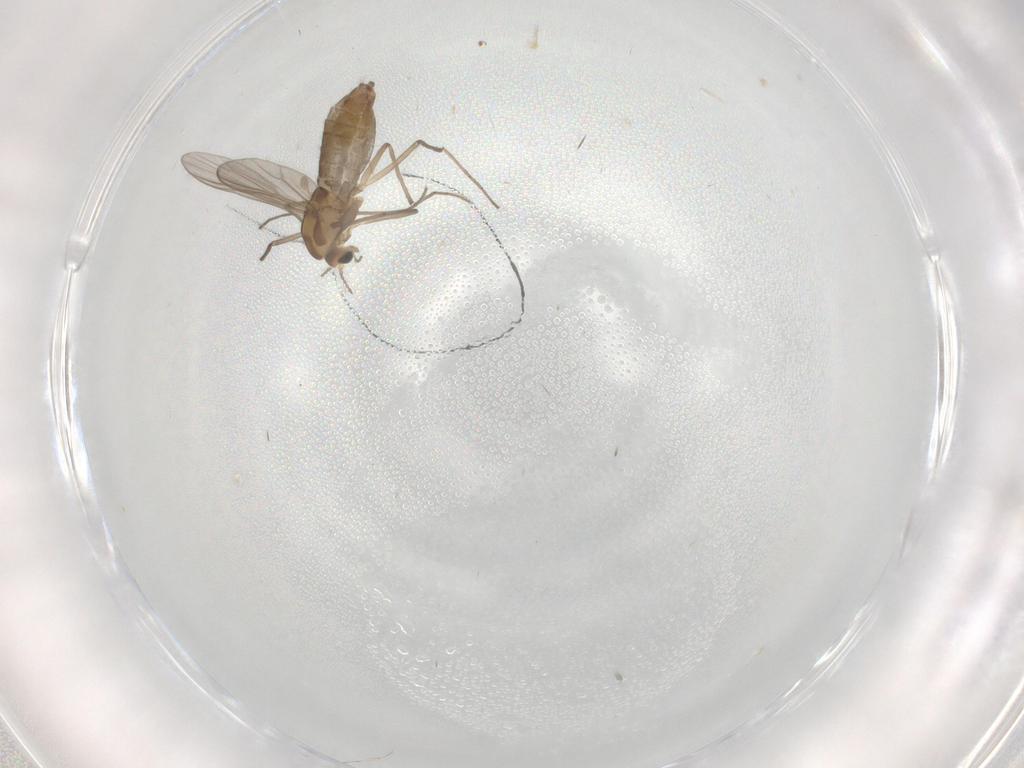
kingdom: Animalia
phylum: Arthropoda
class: Insecta
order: Diptera
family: Chironomidae
